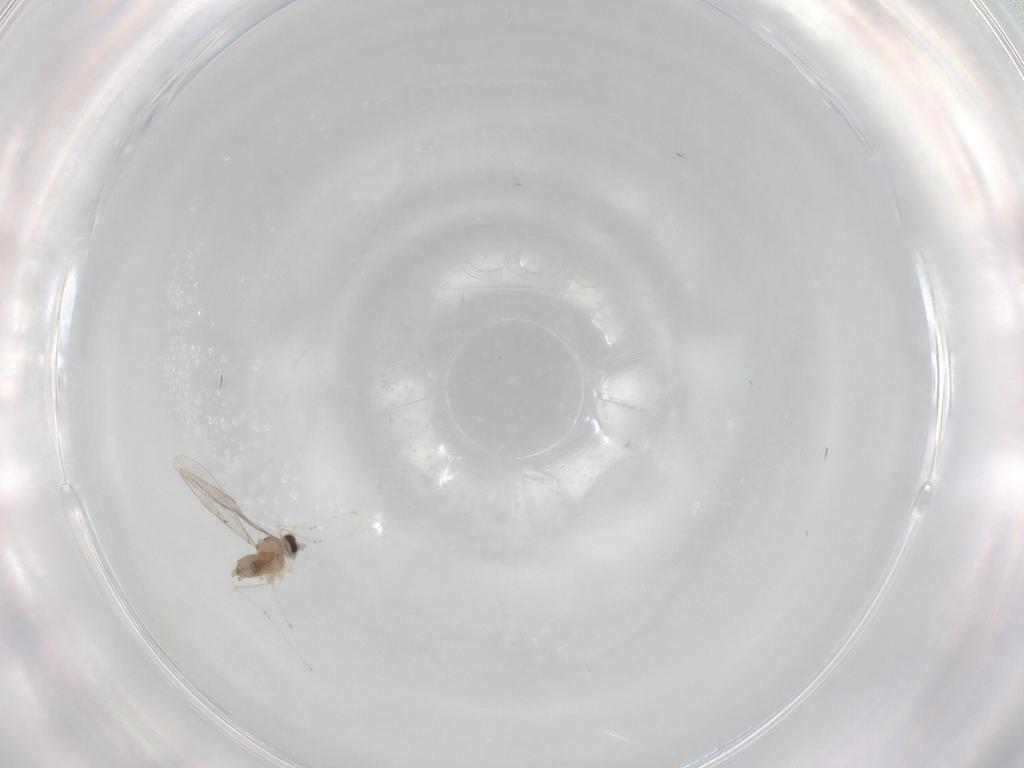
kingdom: Animalia
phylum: Arthropoda
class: Insecta
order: Diptera
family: Cecidomyiidae
